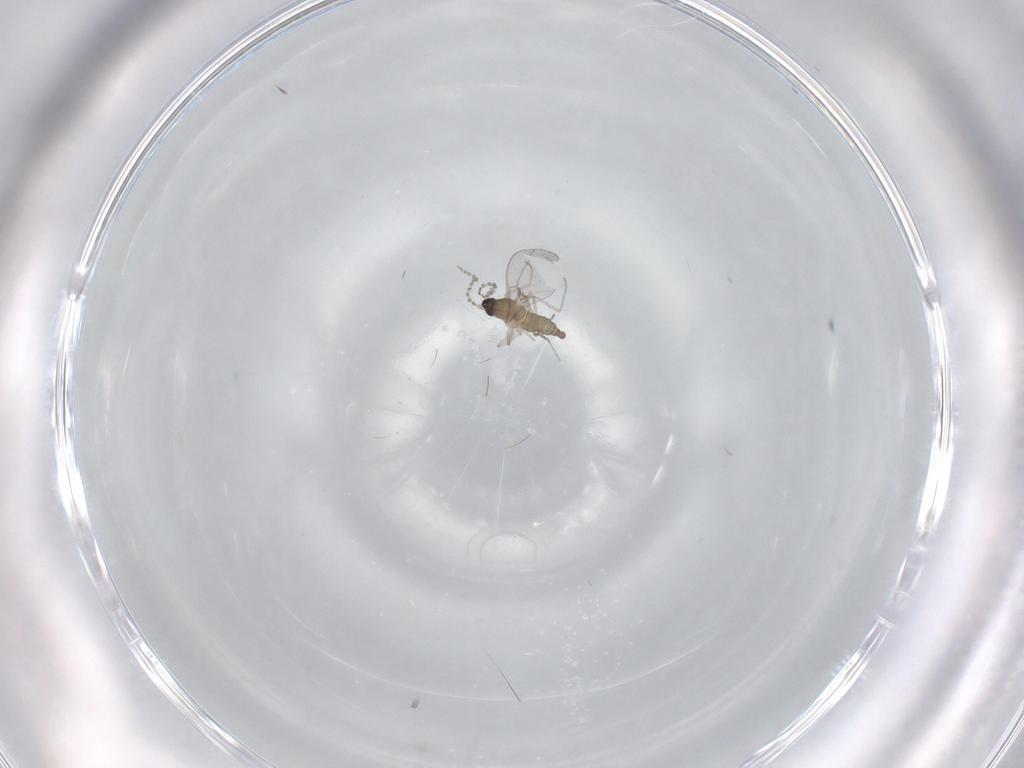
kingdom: Animalia
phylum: Arthropoda
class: Insecta
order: Diptera
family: Cecidomyiidae
